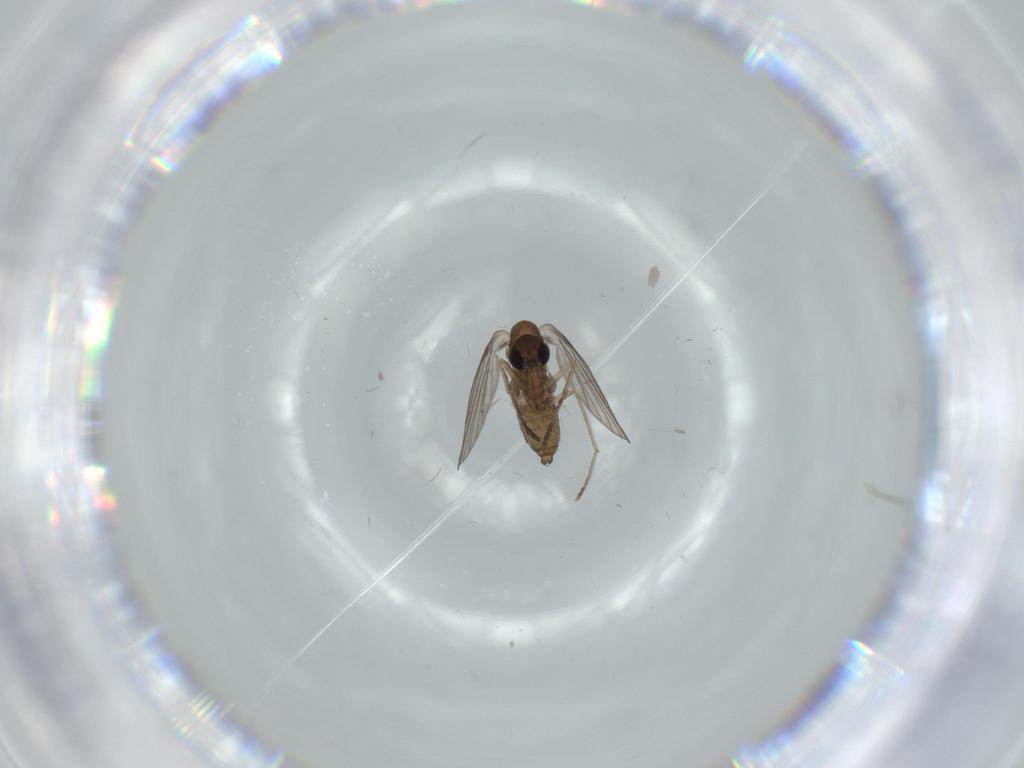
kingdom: Animalia
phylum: Arthropoda
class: Insecta
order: Diptera
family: Psychodidae
